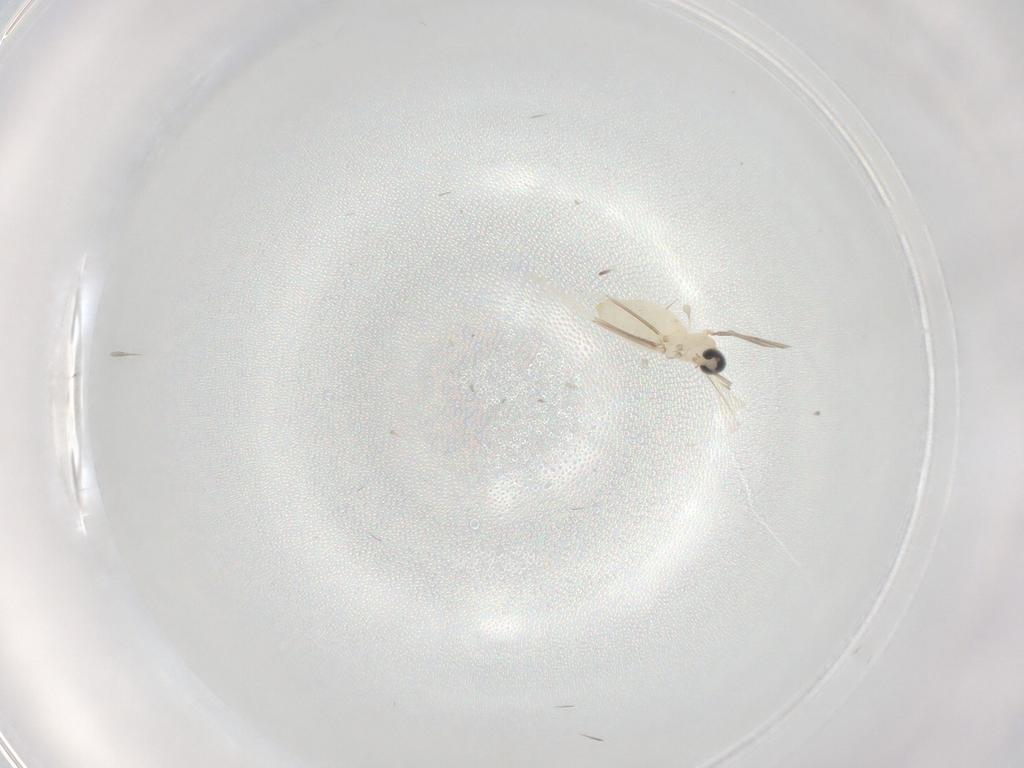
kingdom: Animalia
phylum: Arthropoda
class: Insecta
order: Diptera
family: Cecidomyiidae
